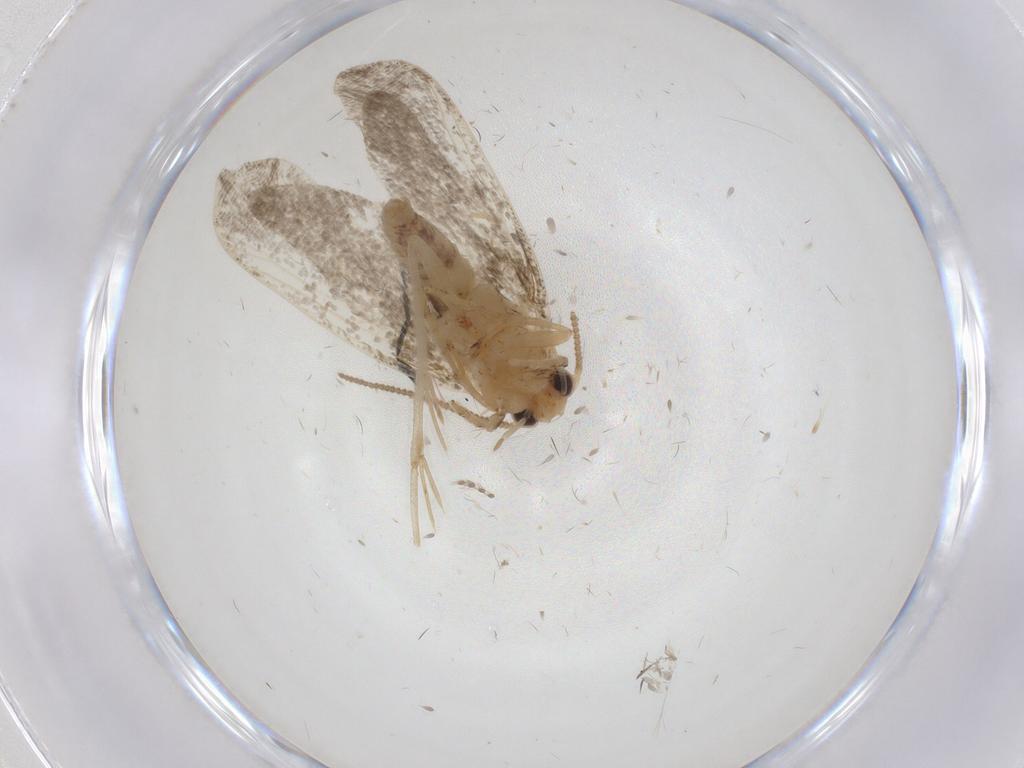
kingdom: Animalia
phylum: Arthropoda
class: Insecta
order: Lepidoptera
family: Tineidae
